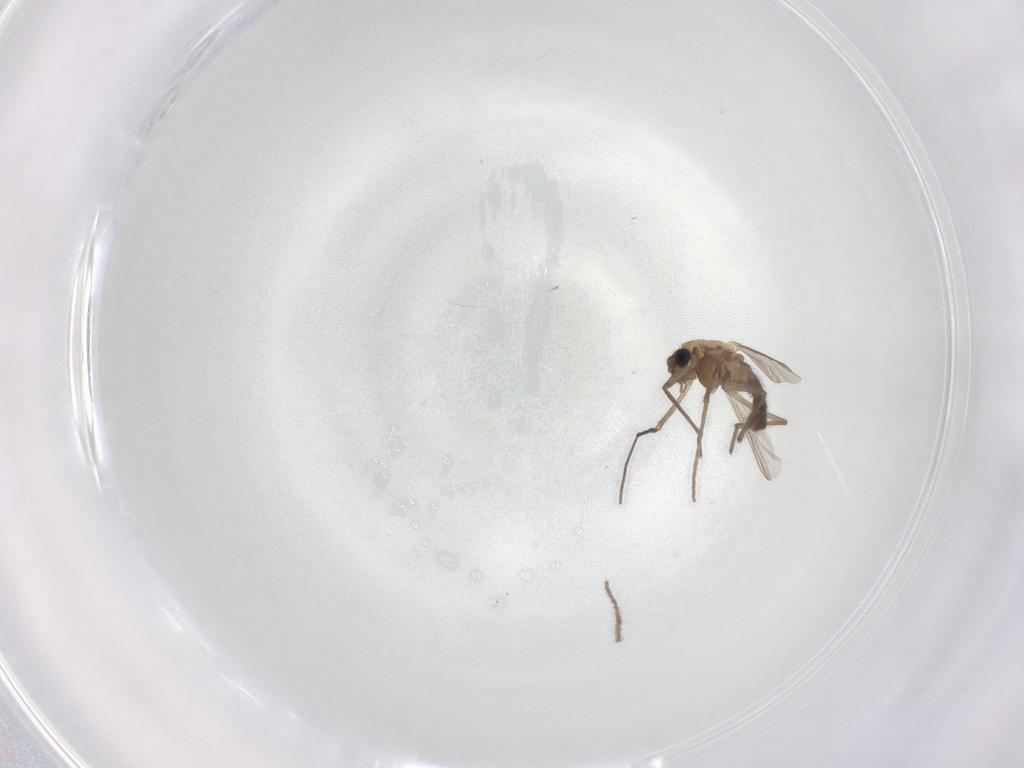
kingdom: Animalia
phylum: Arthropoda
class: Insecta
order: Diptera
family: Chironomidae
